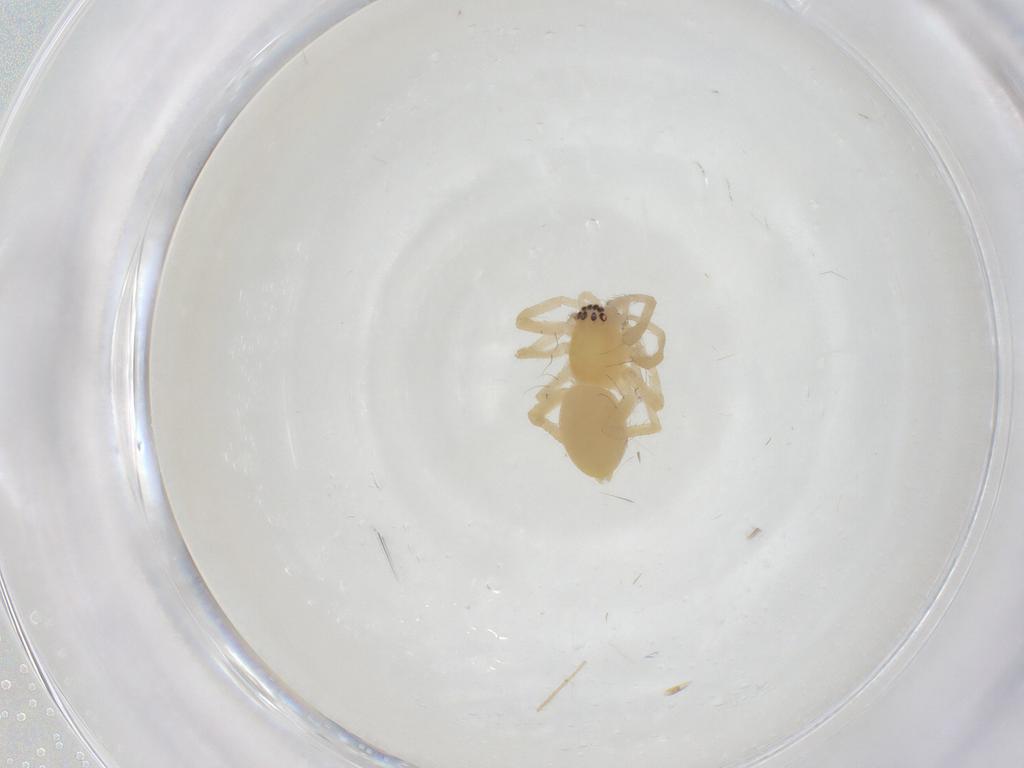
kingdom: Animalia
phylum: Arthropoda
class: Arachnida
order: Araneae
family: Anyphaenidae
